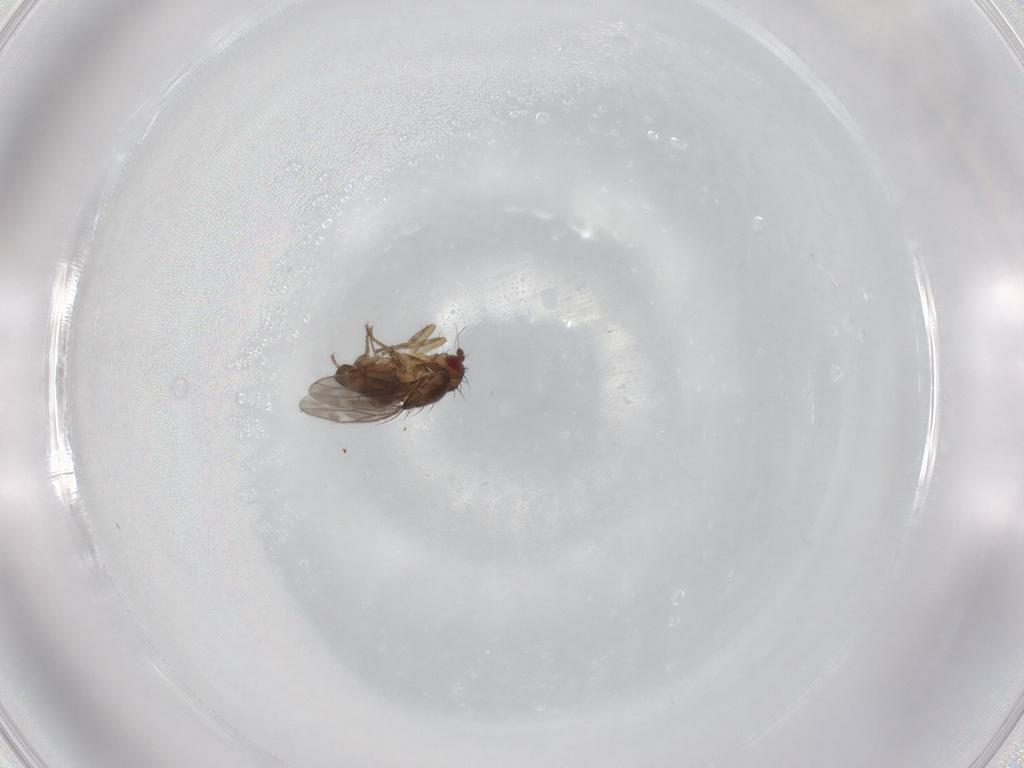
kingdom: Animalia
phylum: Arthropoda
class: Insecta
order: Diptera
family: Sphaeroceridae
